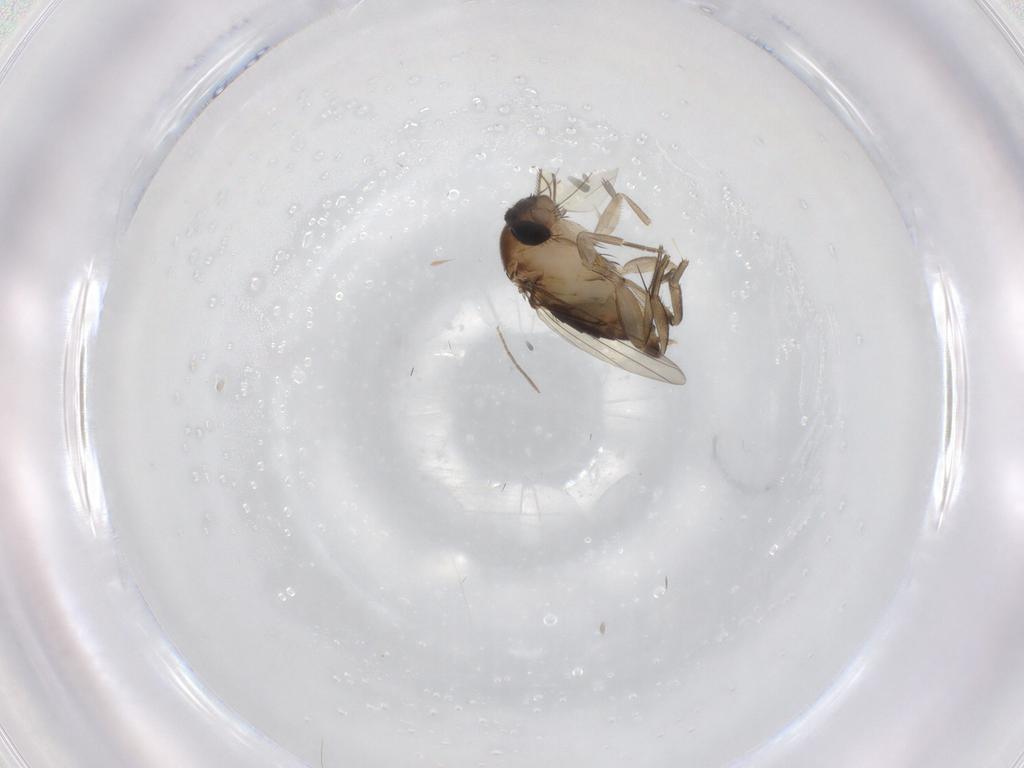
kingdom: Animalia
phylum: Arthropoda
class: Insecta
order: Diptera
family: Phoridae
